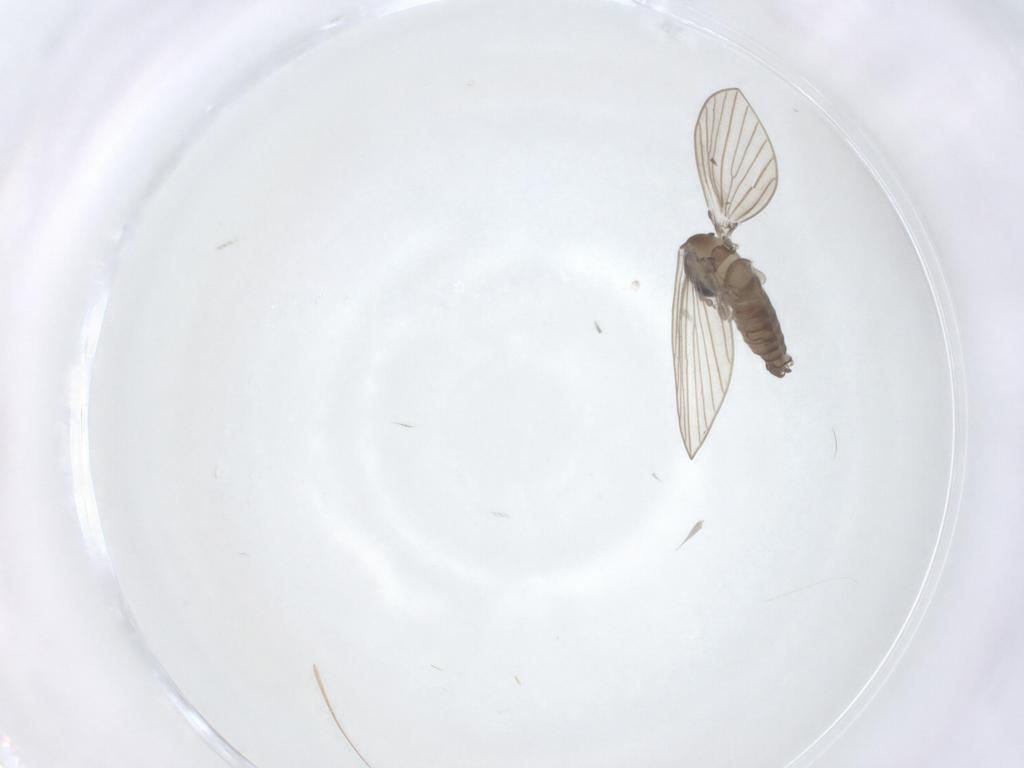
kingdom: Animalia
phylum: Arthropoda
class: Insecta
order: Diptera
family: Psychodidae
